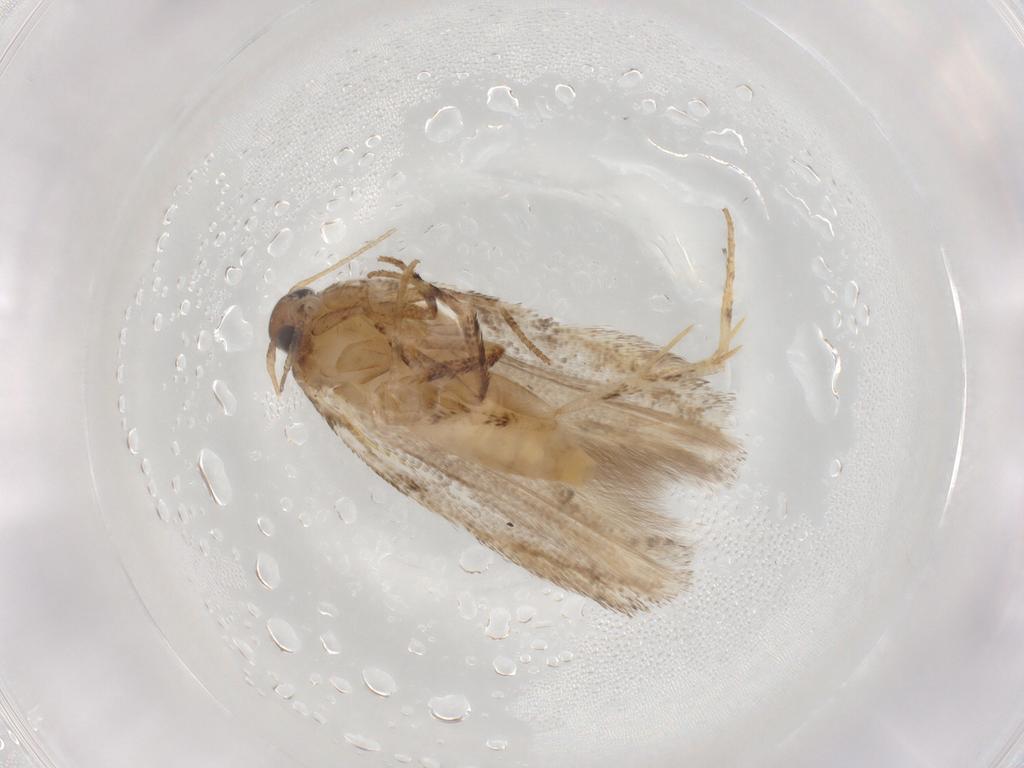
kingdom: Animalia
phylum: Arthropoda
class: Insecta
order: Lepidoptera
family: Gelechiidae
